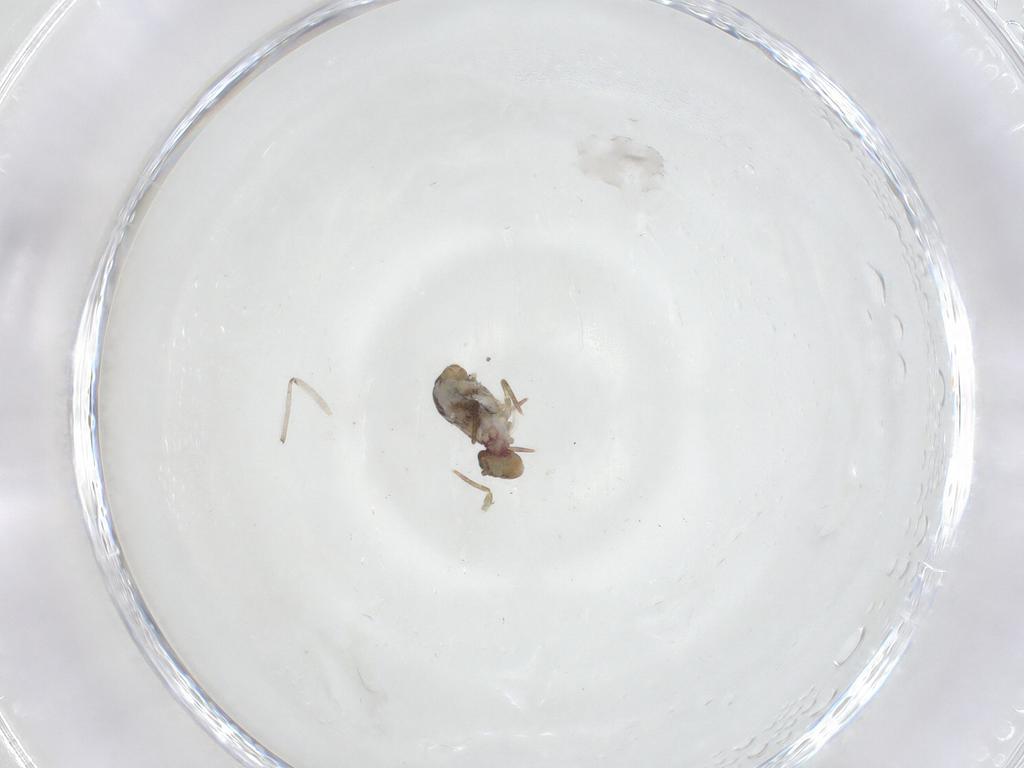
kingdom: Animalia
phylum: Arthropoda
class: Collembola
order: Symphypleona
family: Dicyrtomidae
